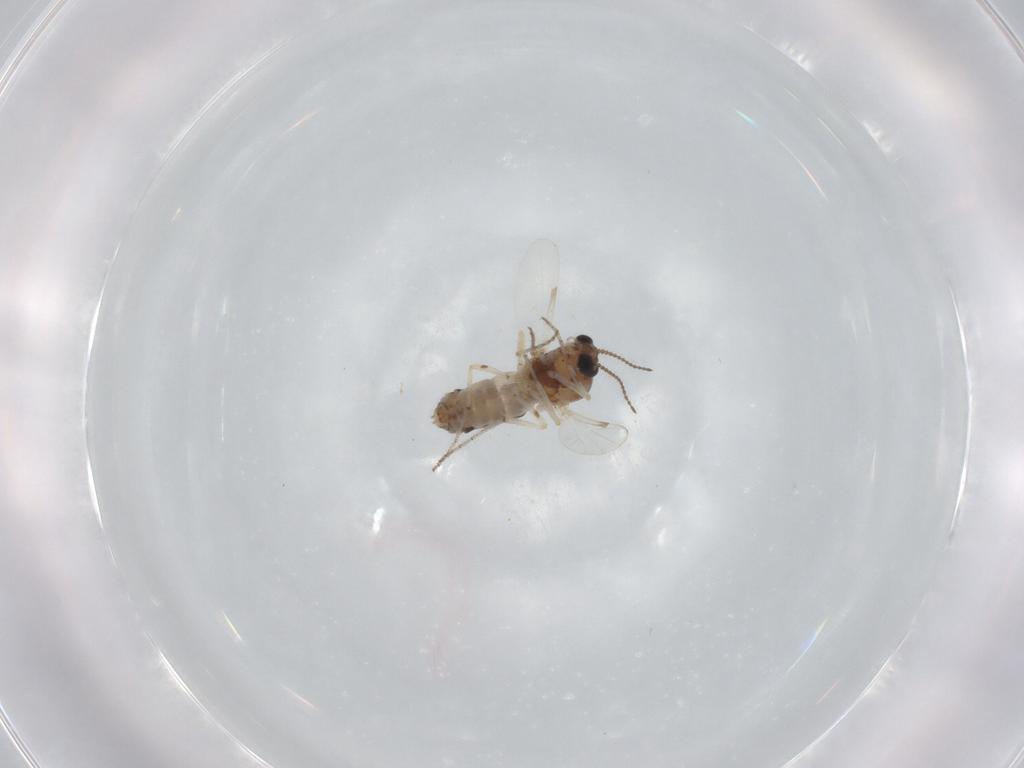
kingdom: Animalia
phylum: Arthropoda
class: Insecta
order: Diptera
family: Ceratopogonidae
